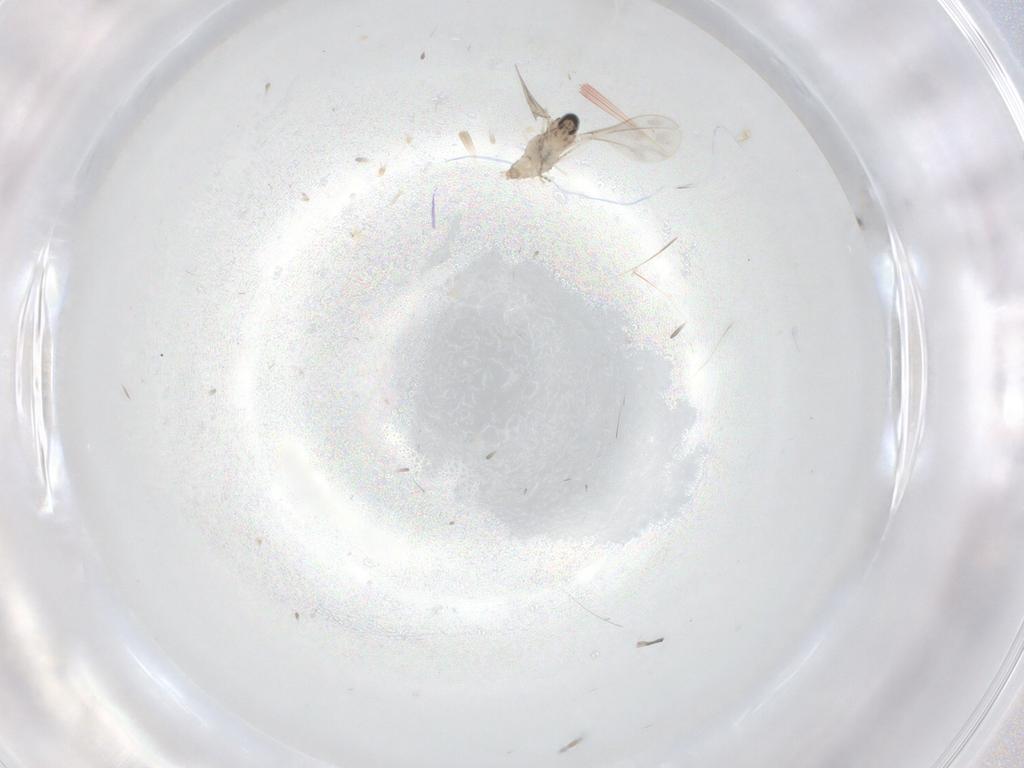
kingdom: Animalia
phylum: Arthropoda
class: Insecta
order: Diptera
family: Cecidomyiidae
